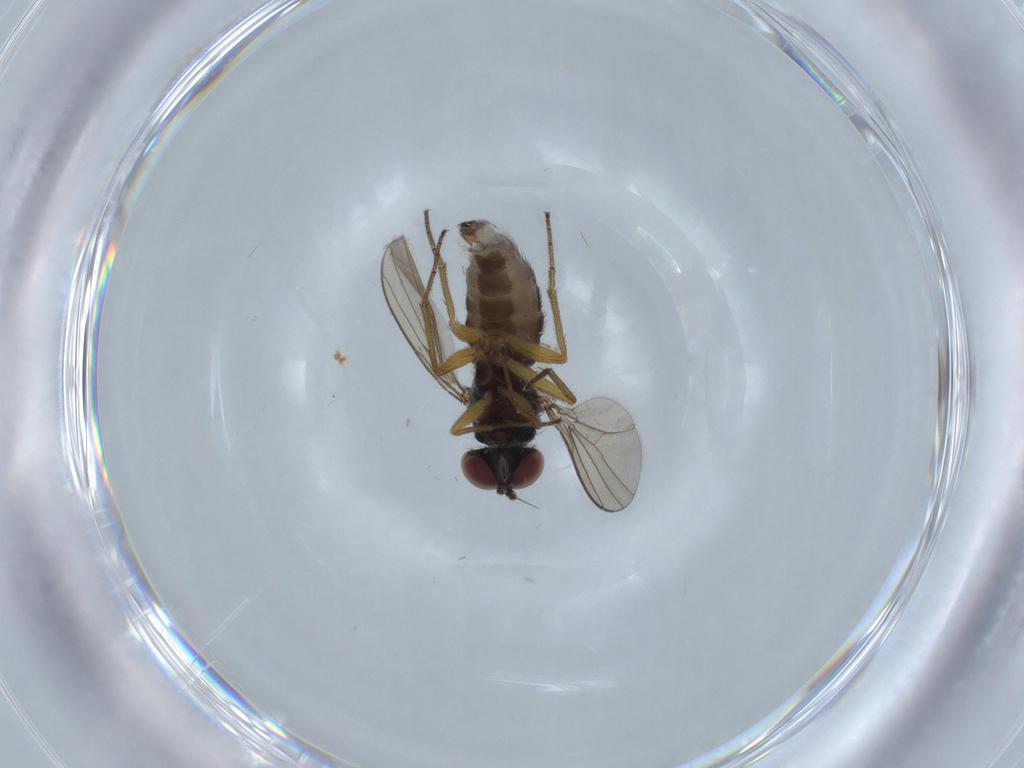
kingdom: Animalia
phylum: Arthropoda
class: Insecta
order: Diptera
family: Dolichopodidae
